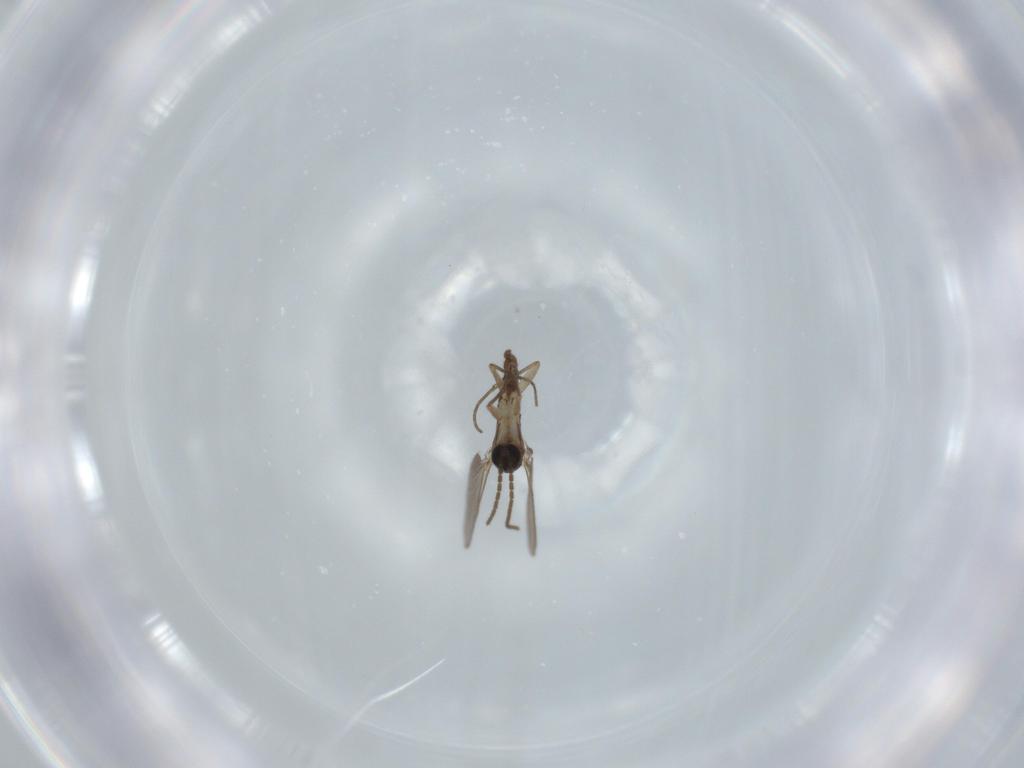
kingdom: Animalia
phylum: Arthropoda
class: Insecta
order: Diptera
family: Sciaridae
